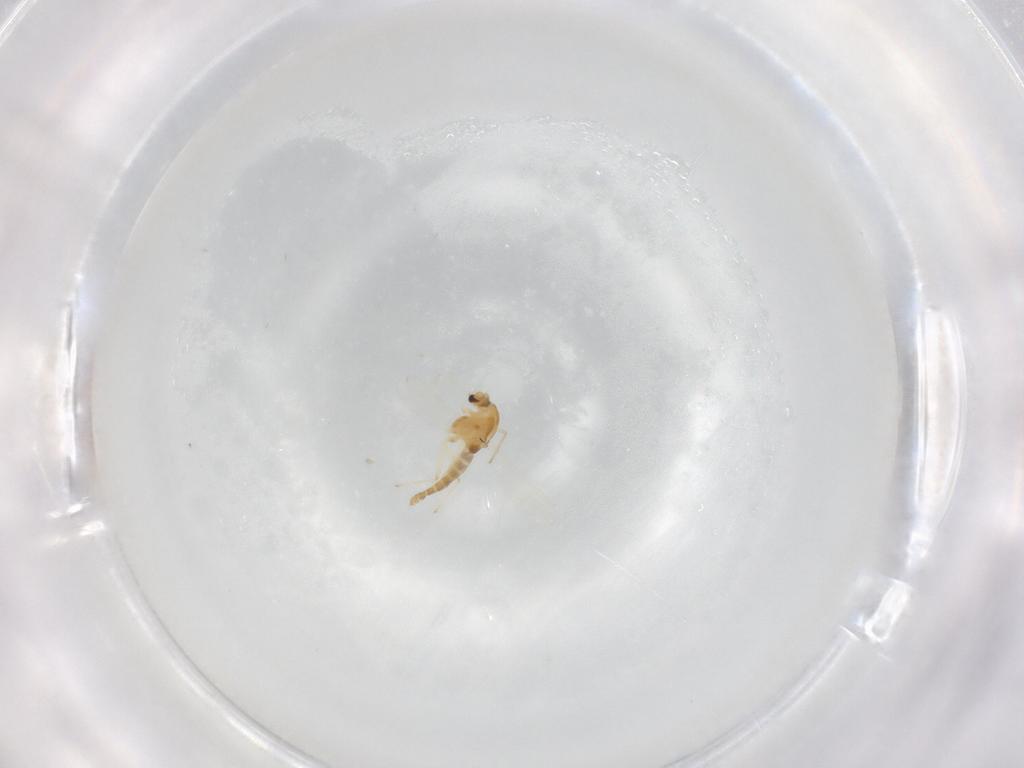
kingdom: Animalia
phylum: Arthropoda
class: Insecta
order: Diptera
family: Chironomidae
